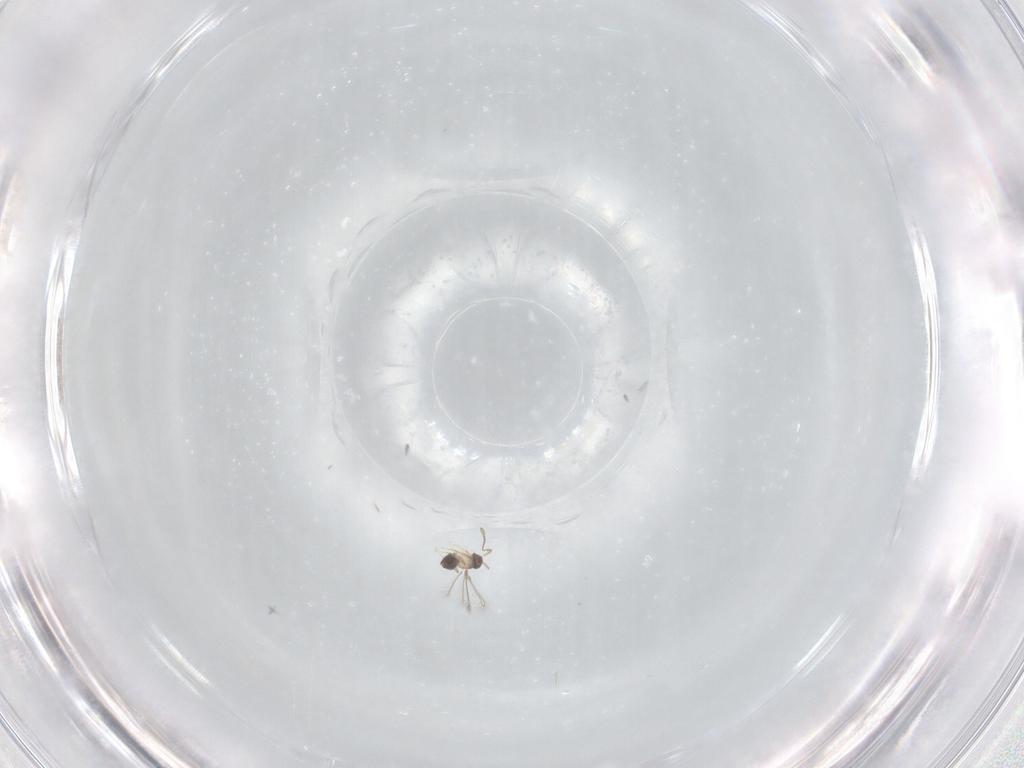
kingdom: Animalia
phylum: Arthropoda
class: Insecta
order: Hymenoptera
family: Mymaridae
